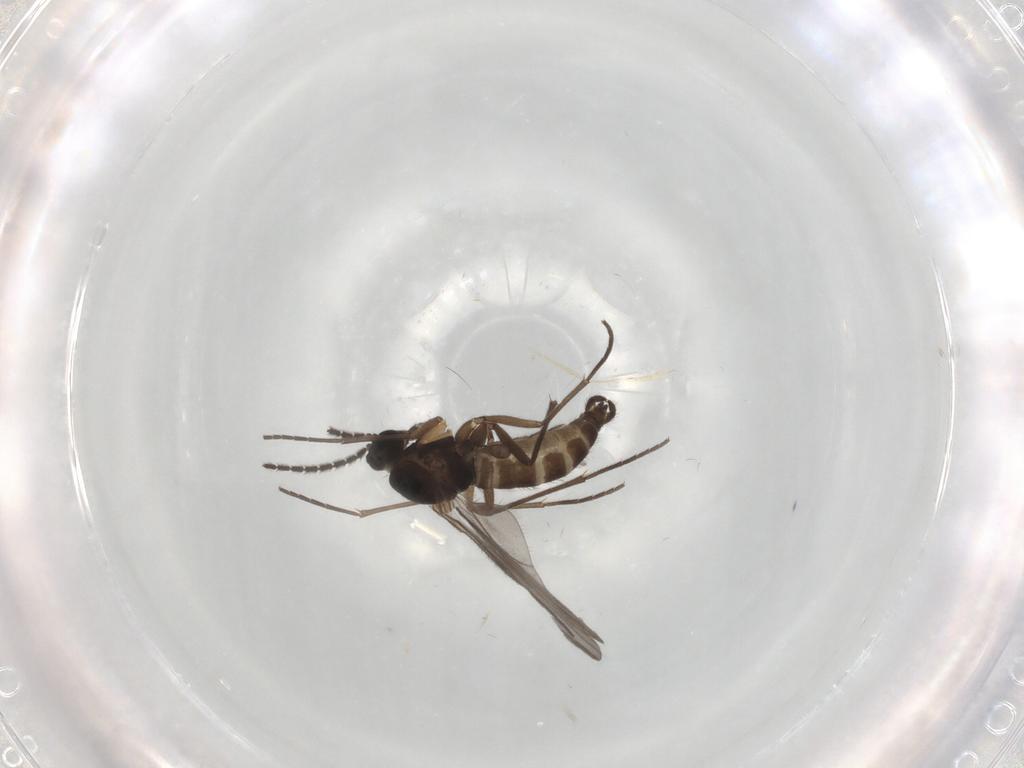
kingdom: Animalia
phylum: Arthropoda
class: Insecta
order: Diptera
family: Sciaridae
